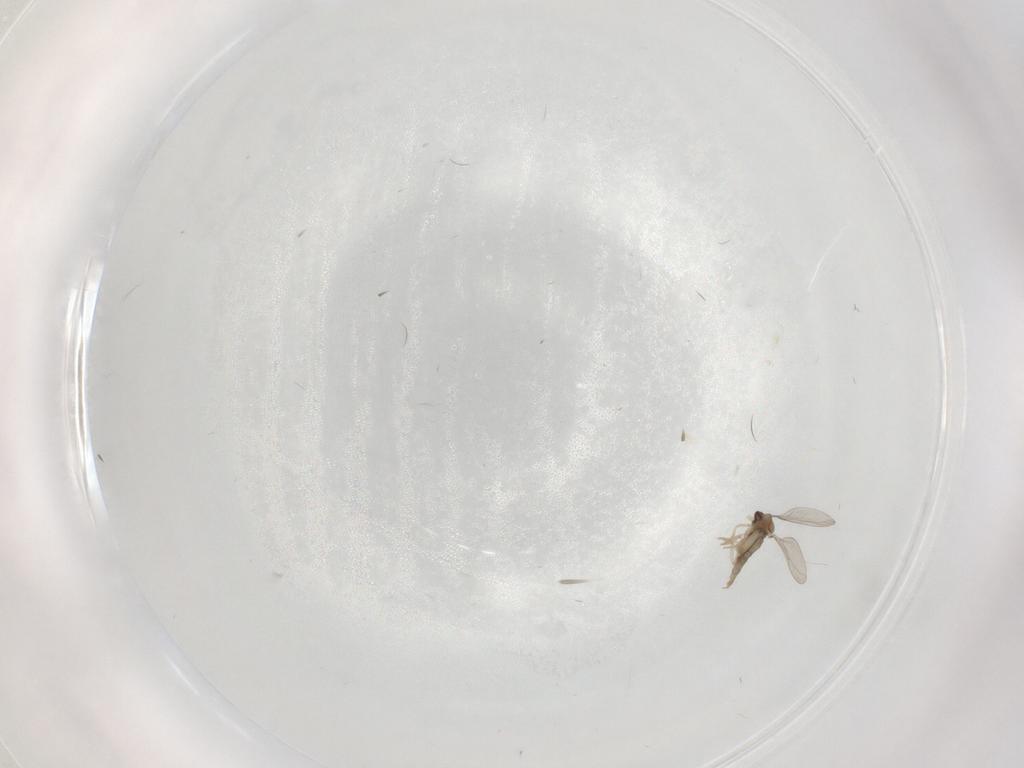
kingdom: Animalia
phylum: Arthropoda
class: Insecta
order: Diptera
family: Cecidomyiidae
